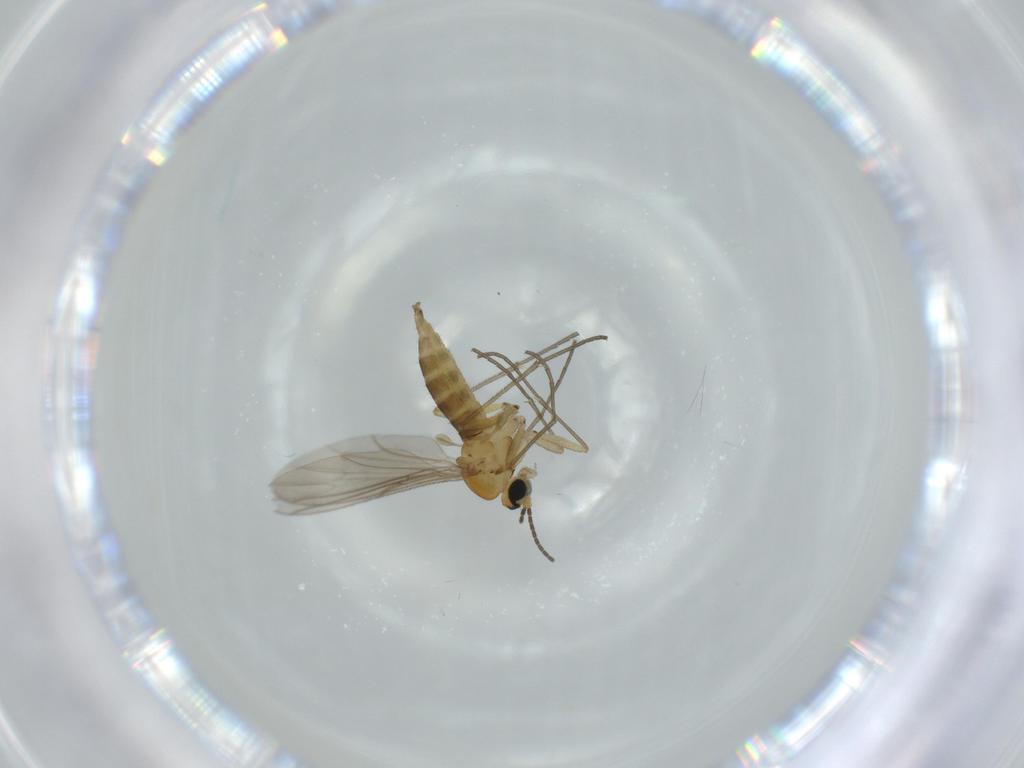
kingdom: Animalia
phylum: Arthropoda
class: Insecta
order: Diptera
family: Sciaridae
